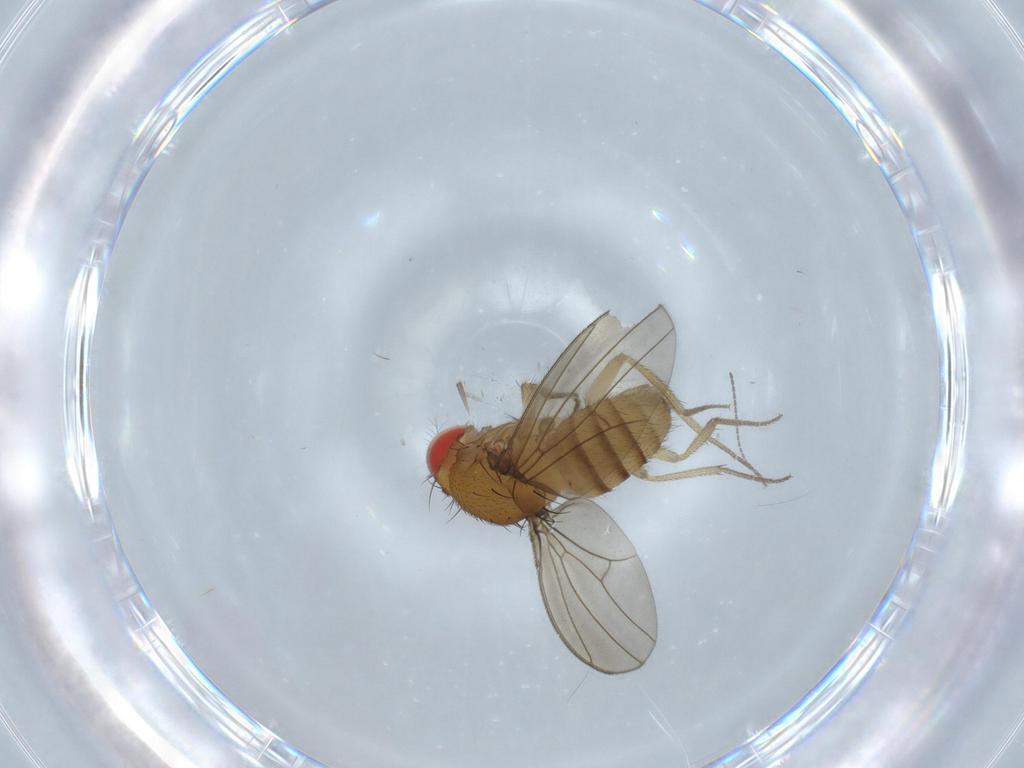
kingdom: Animalia
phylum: Arthropoda
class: Insecta
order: Diptera
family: Drosophilidae
